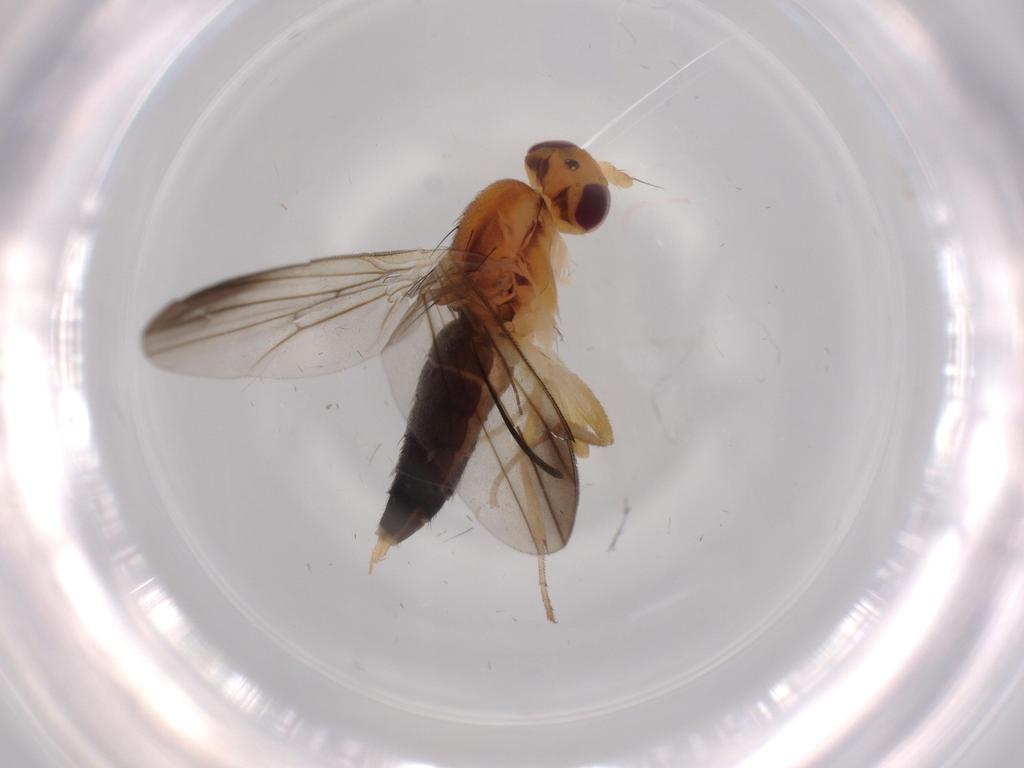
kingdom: Animalia
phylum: Arthropoda
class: Insecta
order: Diptera
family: Clusiidae
